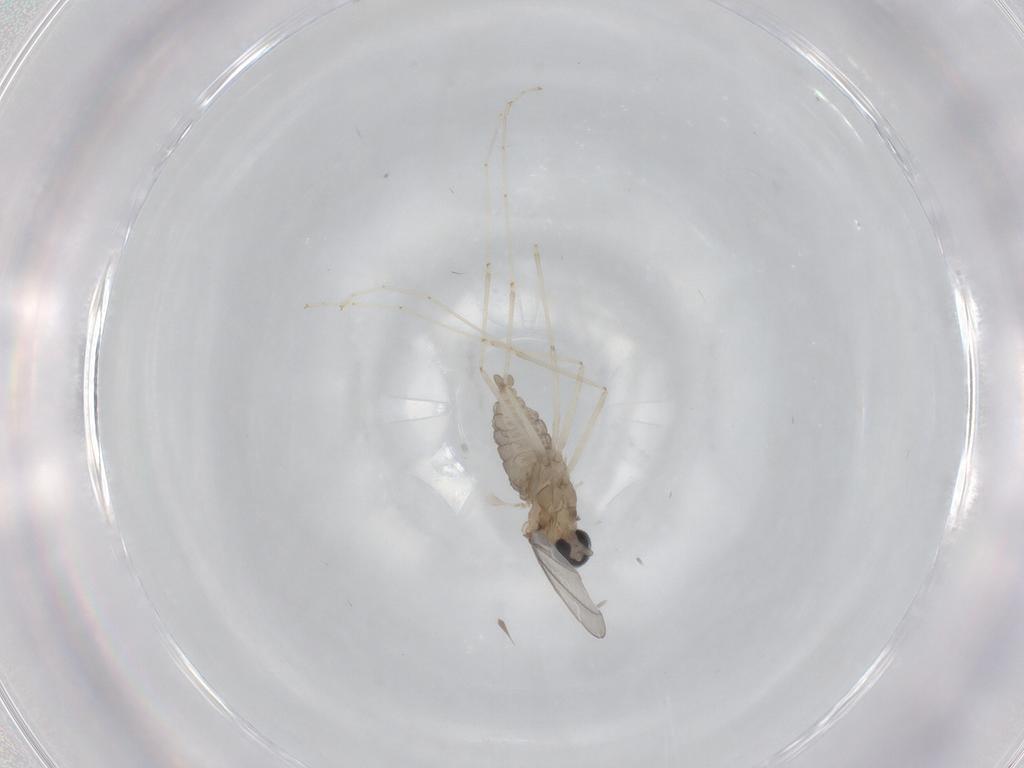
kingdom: Animalia
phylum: Arthropoda
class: Insecta
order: Diptera
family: Cecidomyiidae
